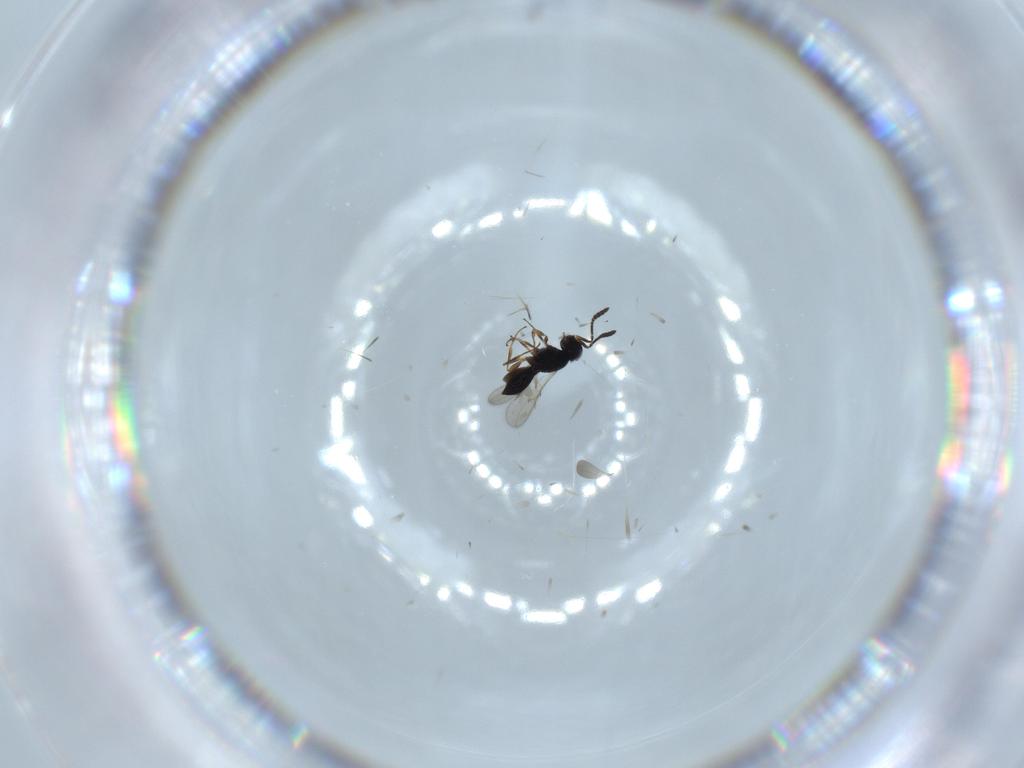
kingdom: Animalia
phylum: Arthropoda
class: Insecta
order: Hymenoptera
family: Scelionidae
